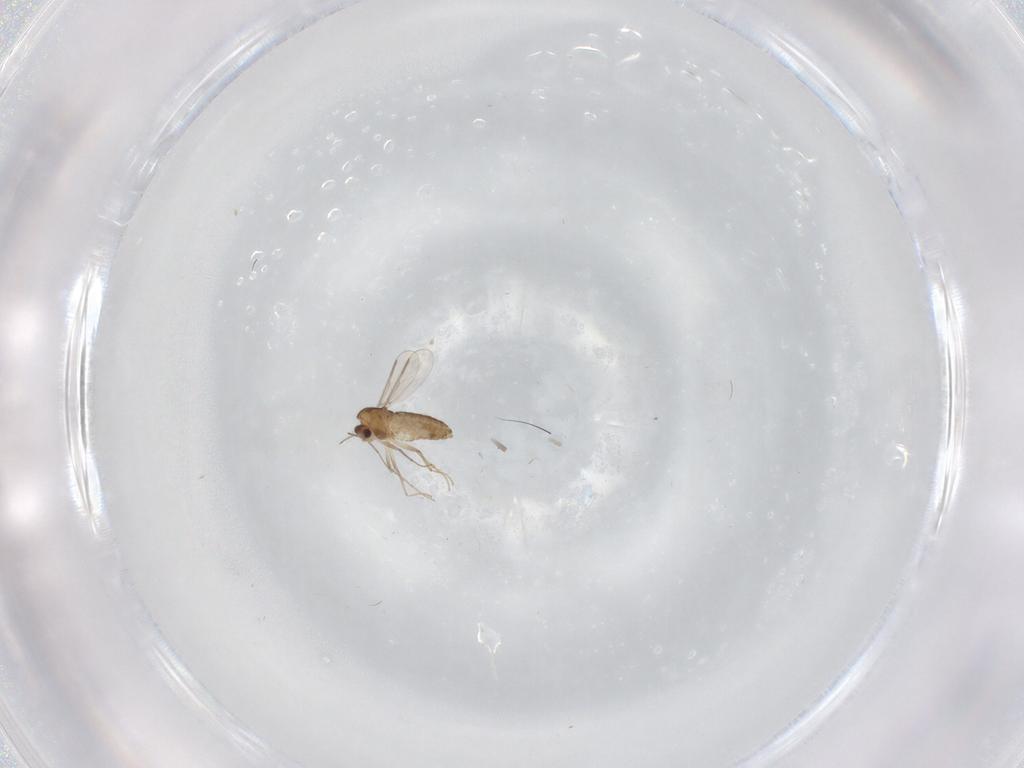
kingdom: Animalia
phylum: Arthropoda
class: Insecta
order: Diptera
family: Chironomidae
